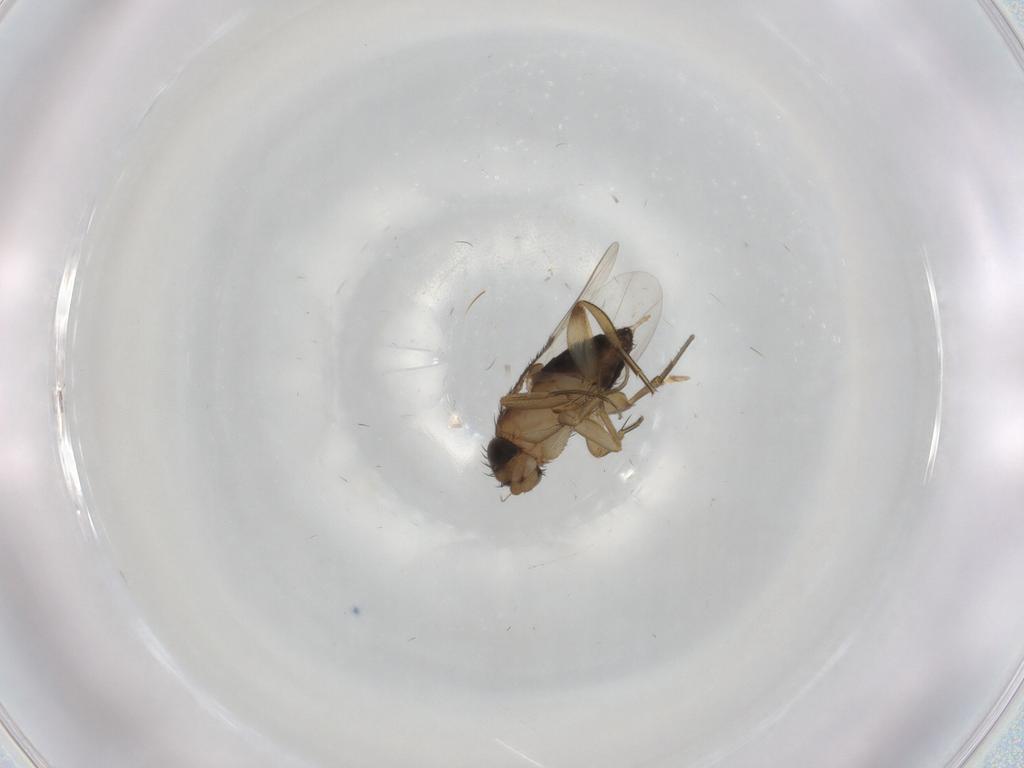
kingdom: Animalia
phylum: Arthropoda
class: Insecta
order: Diptera
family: Phoridae
